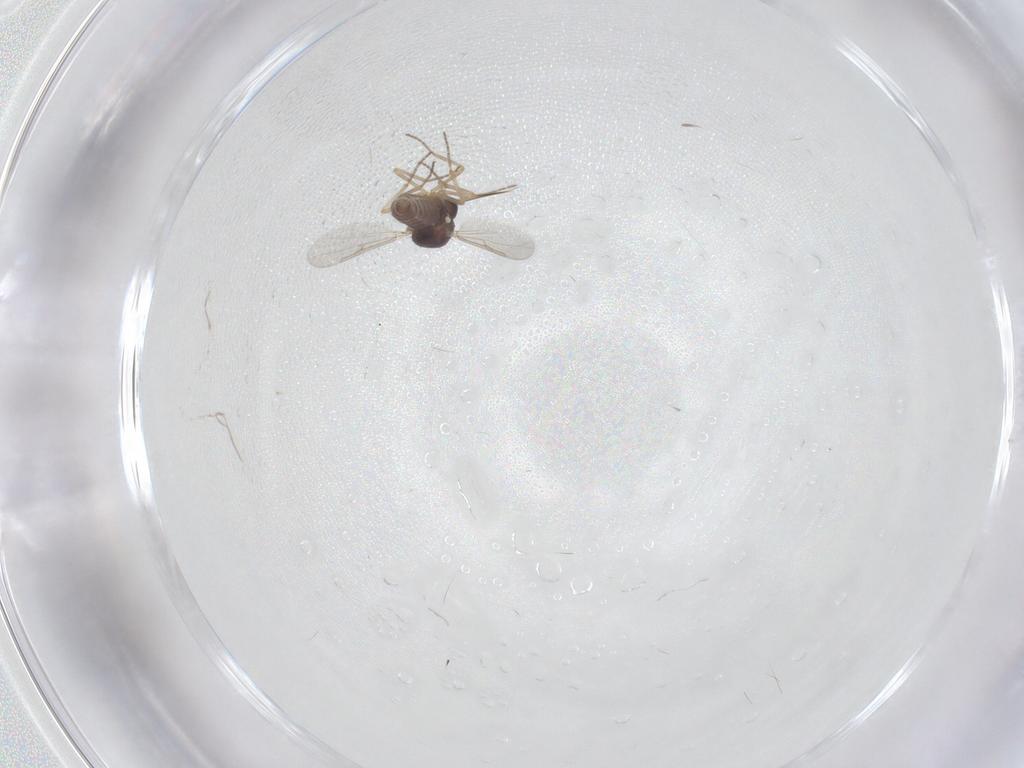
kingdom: Animalia
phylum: Arthropoda
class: Insecta
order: Diptera
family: Ceratopogonidae
